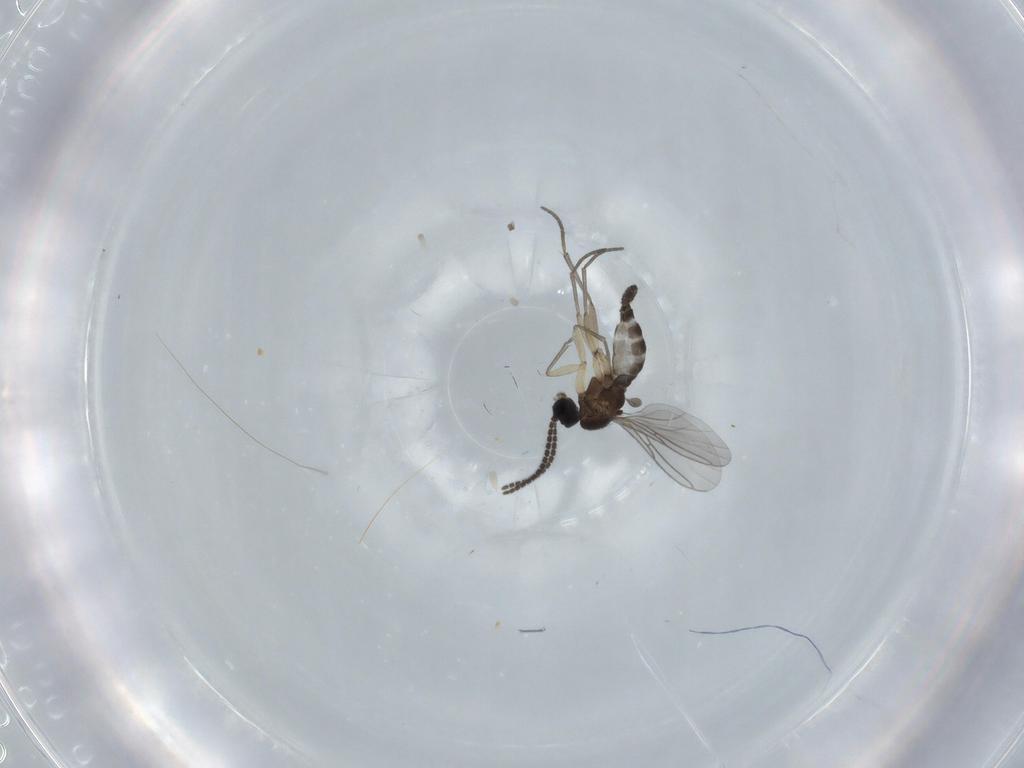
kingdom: Animalia
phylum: Arthropoda
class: Insecta
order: Diptera
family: Sciaridae
